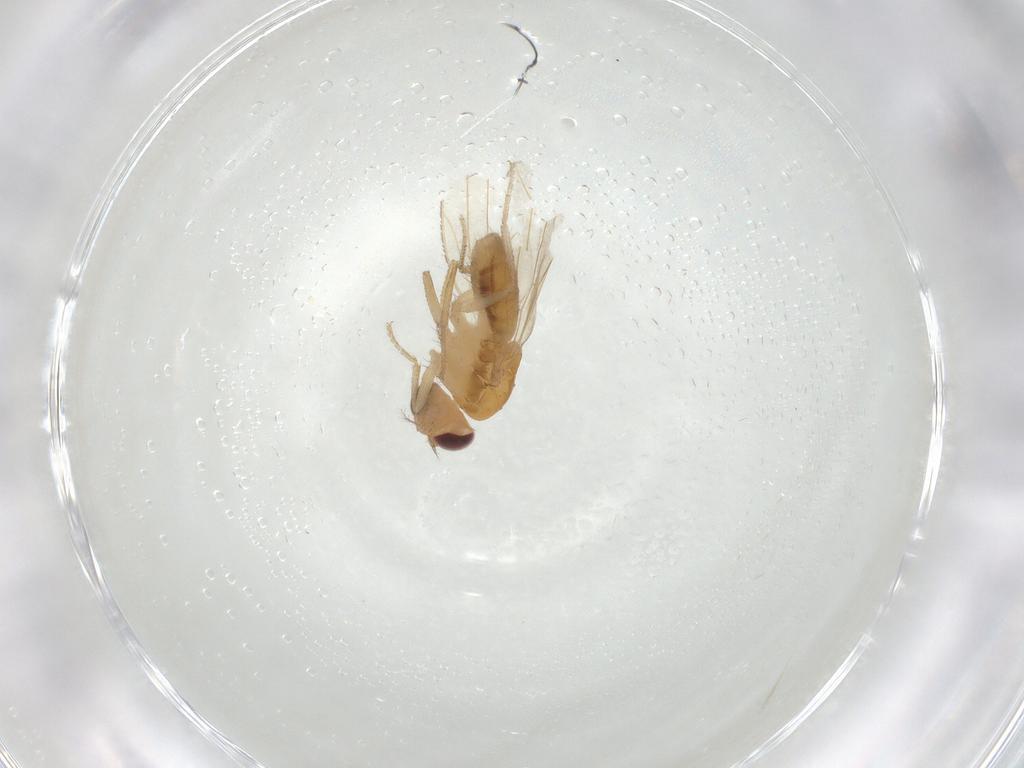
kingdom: Animalia
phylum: Arthropoda
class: Insecta
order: Diptera
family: Drosophilidae
